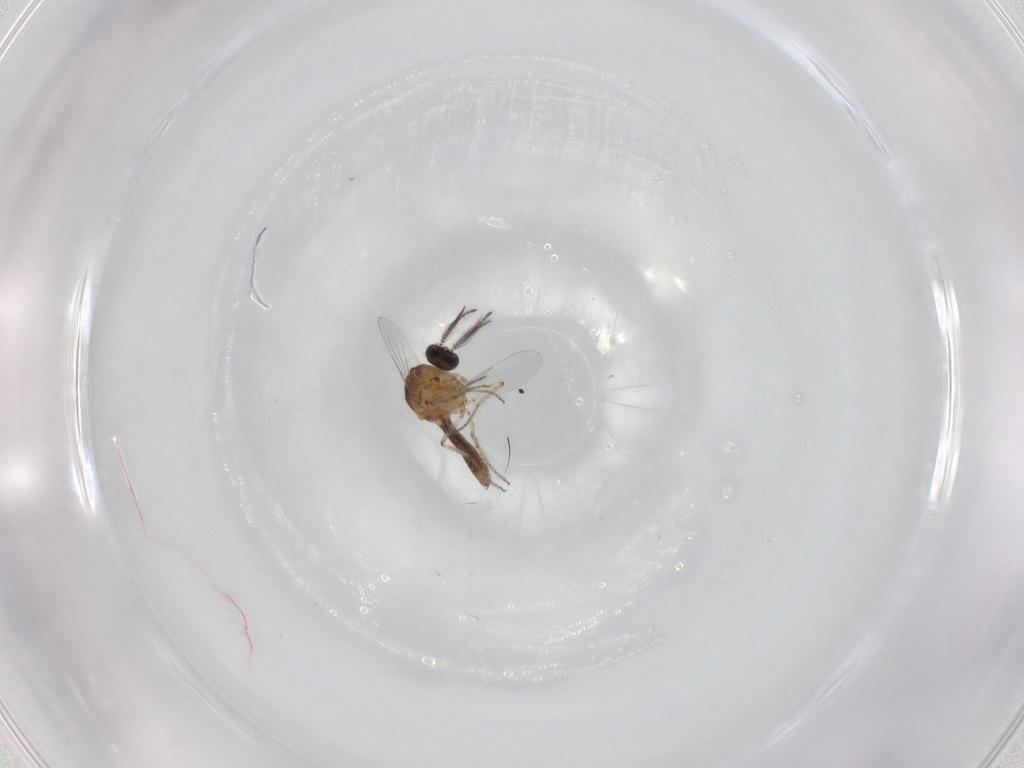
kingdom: Animalia
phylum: Arthropoda
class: Insecta
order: Diptera
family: Ceratopogonidae
